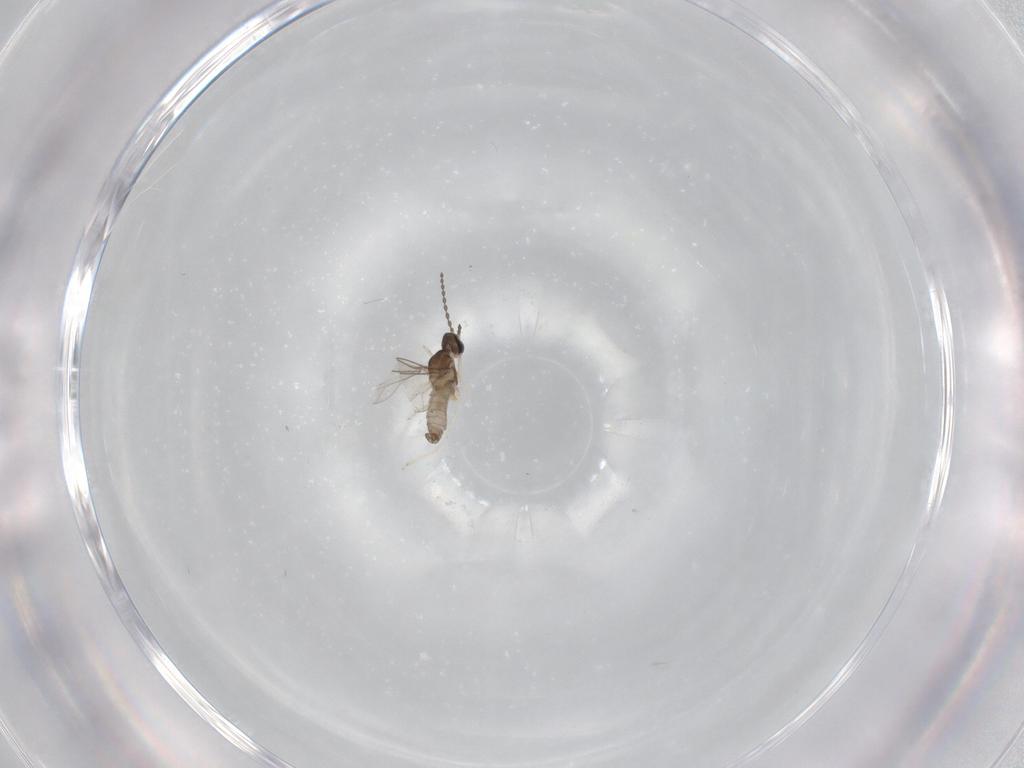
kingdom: Animalia
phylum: Arthropoda
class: Insecta
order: Diptera
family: Cecidomyiidae
